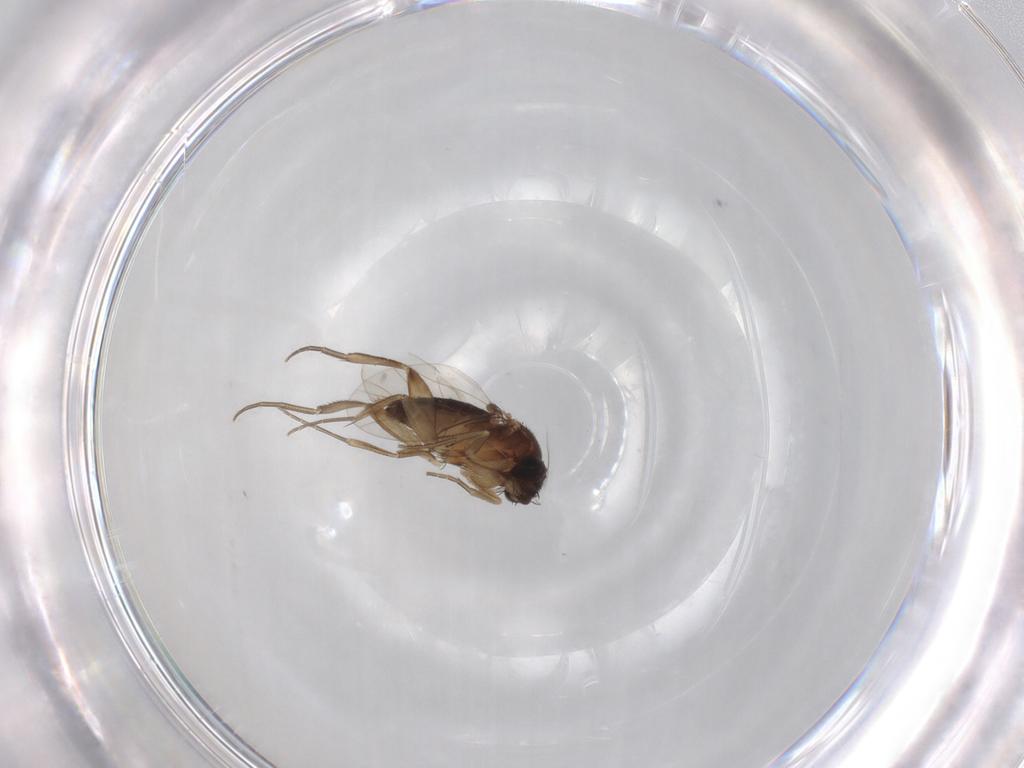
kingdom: Animalia
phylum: Arthropoda
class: Insecta
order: Diptera
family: Phoridae
